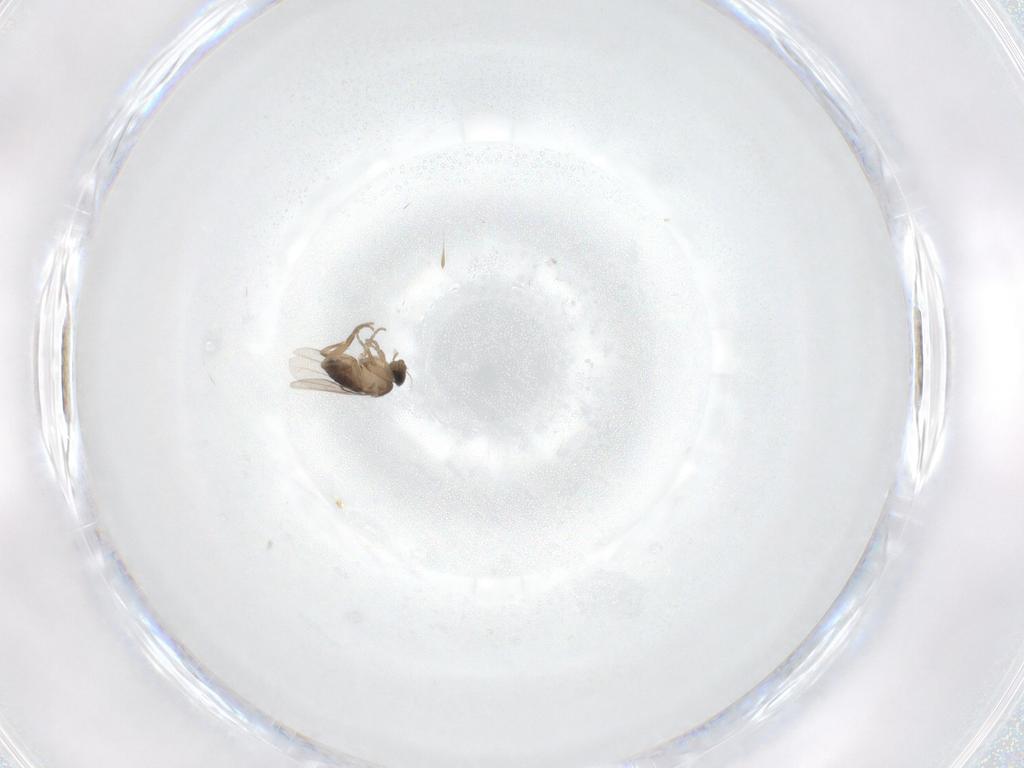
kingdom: Animalia
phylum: Arthropoda
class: Insecta
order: Diptera
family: Phoridae
